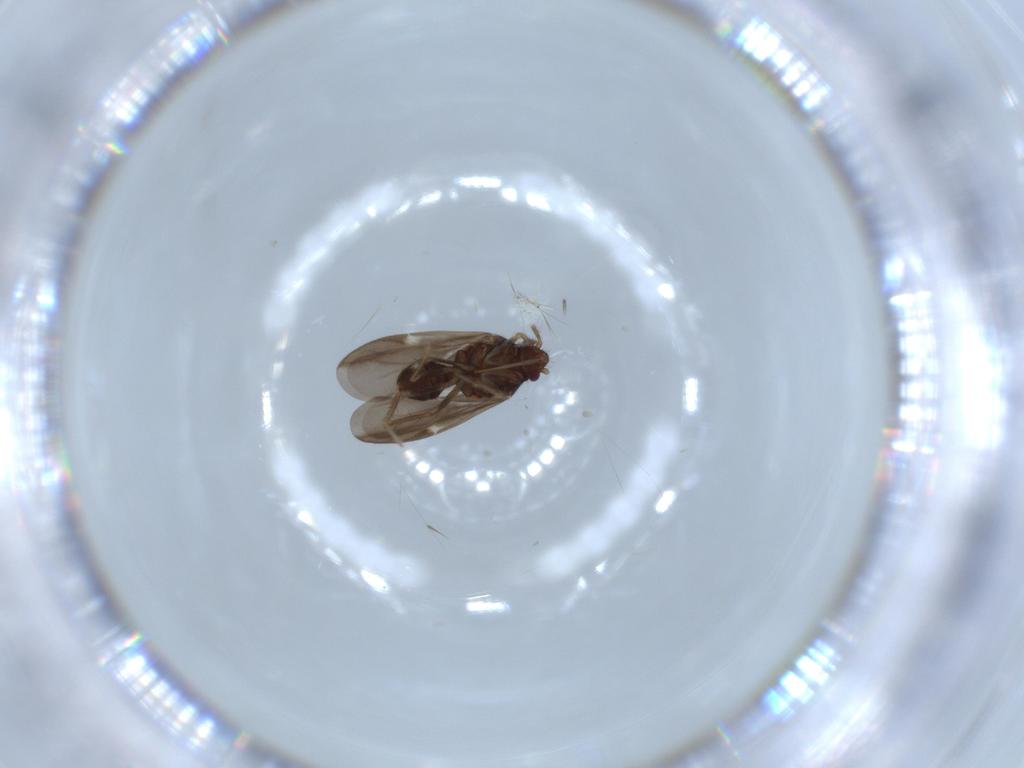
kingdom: Animalia
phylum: Arthropoda
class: Insecta
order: Hemiptera
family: Ceratocombidae
